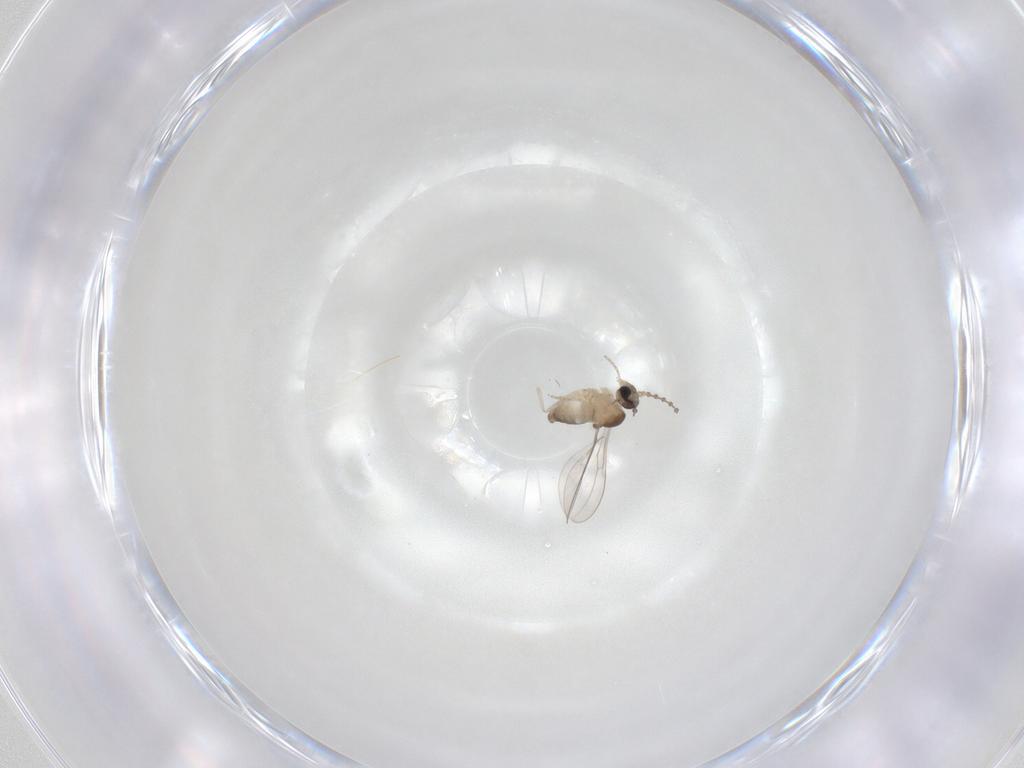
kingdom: Animalia
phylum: Arthropoda
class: Insecta
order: Diptera
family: Cecidomyiidae
